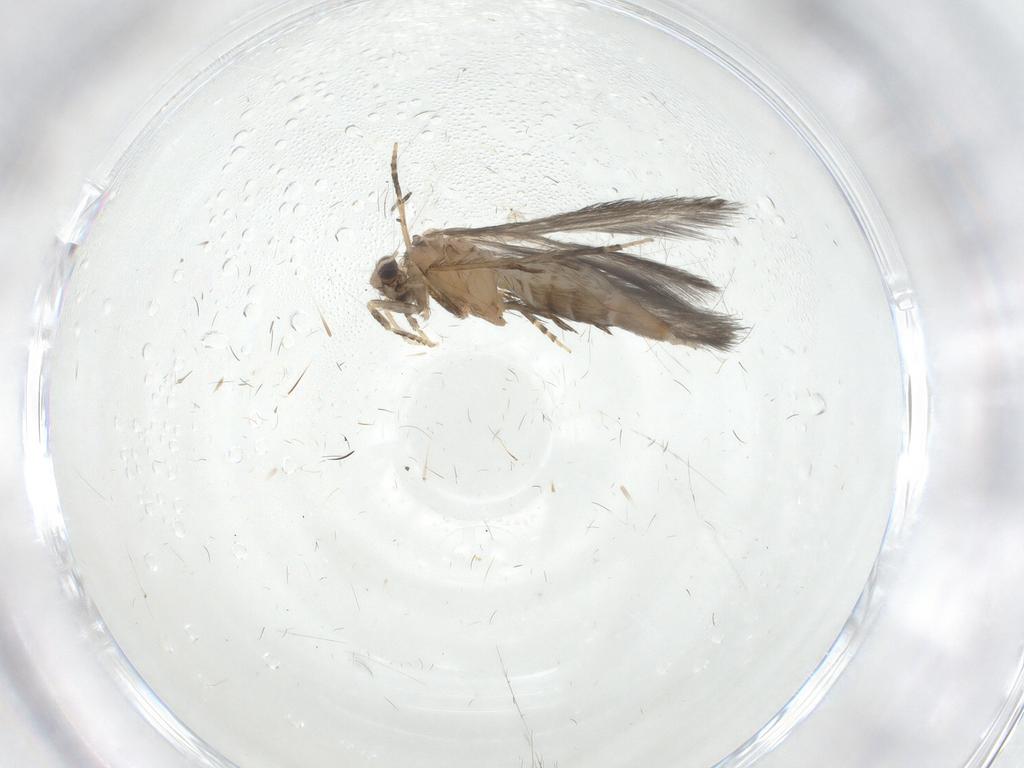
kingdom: Animalia
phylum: Arthropoda
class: Insecta
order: Trichoptera
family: Hydroptilidae
